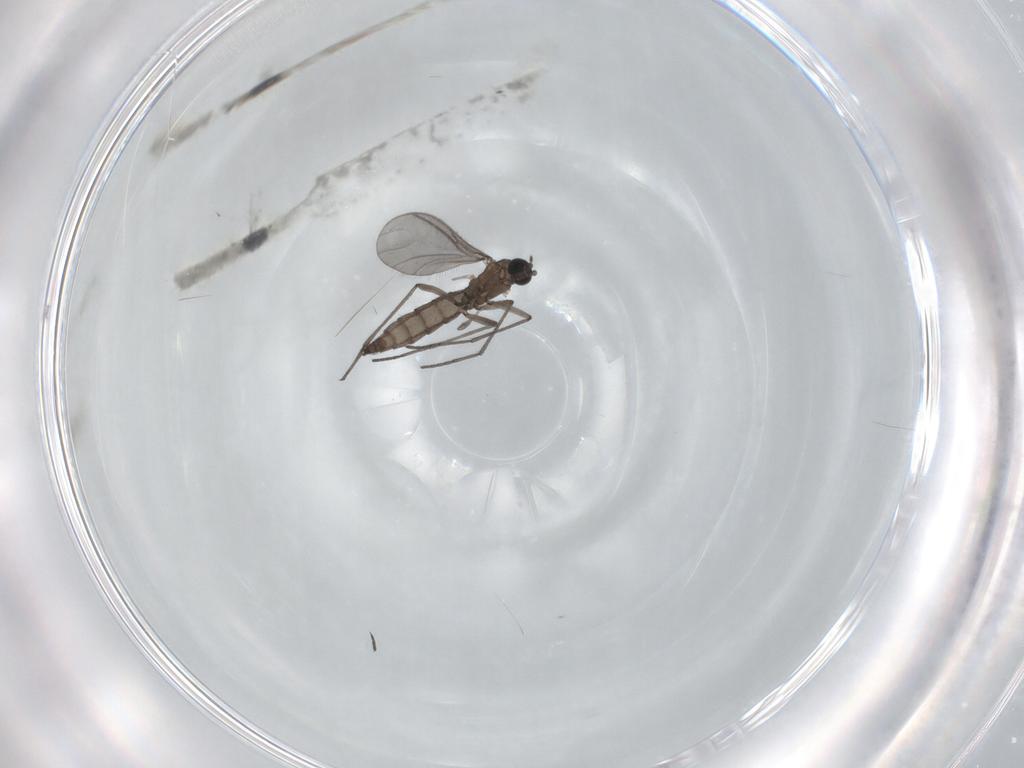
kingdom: Animalia
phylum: Arthropoda
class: Insecta
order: Diptera
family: Chironomidae
